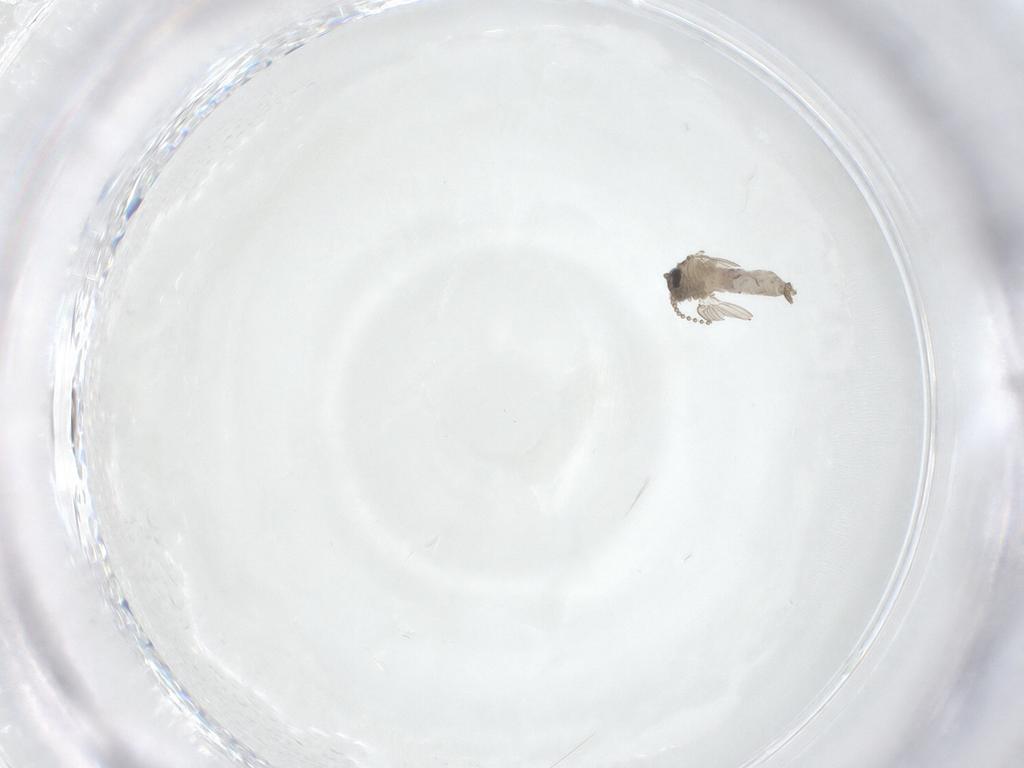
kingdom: Animalia
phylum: Arthropoda
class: Insecta
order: Diptera
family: Psychodidae
